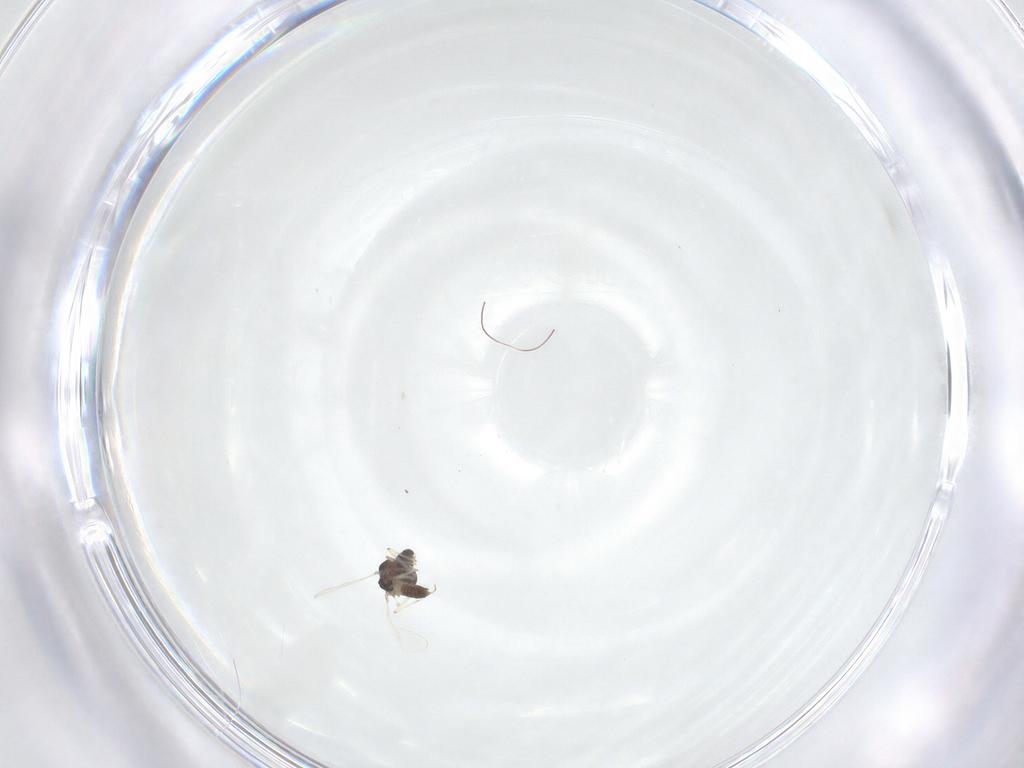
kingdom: Animalia
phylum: Arthropoda
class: Insecta
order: Diptera
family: Chironomidae
